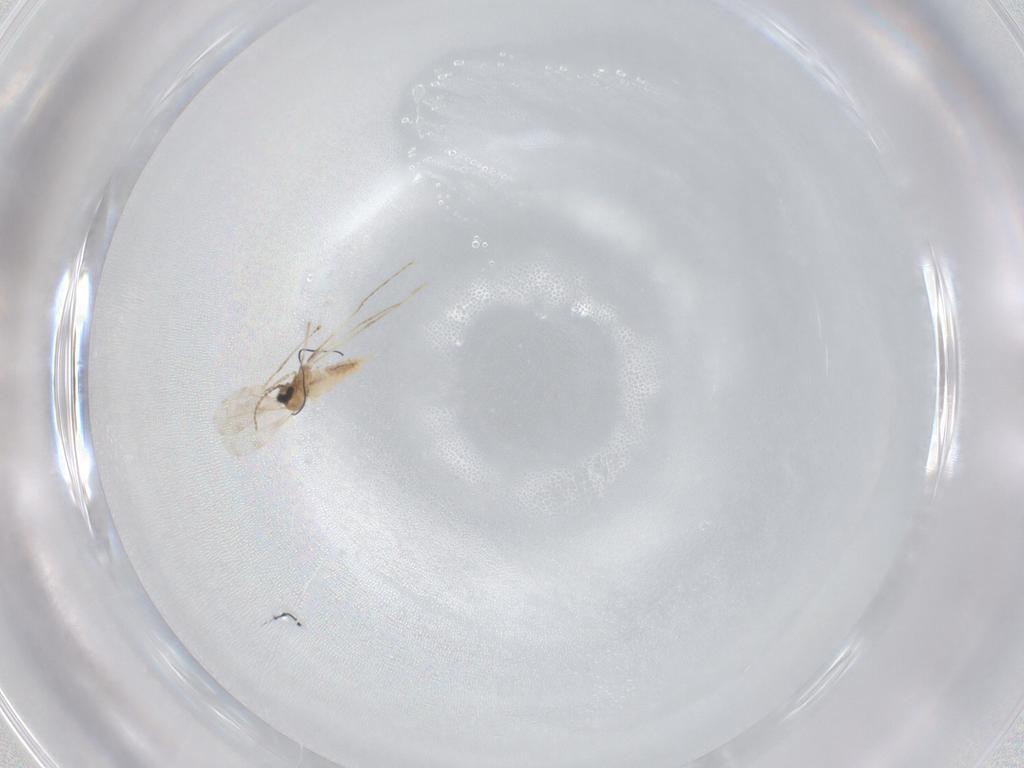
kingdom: Animalia
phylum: Arthropoda
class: Insecta
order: Diptera
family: Cecidomyiidae
